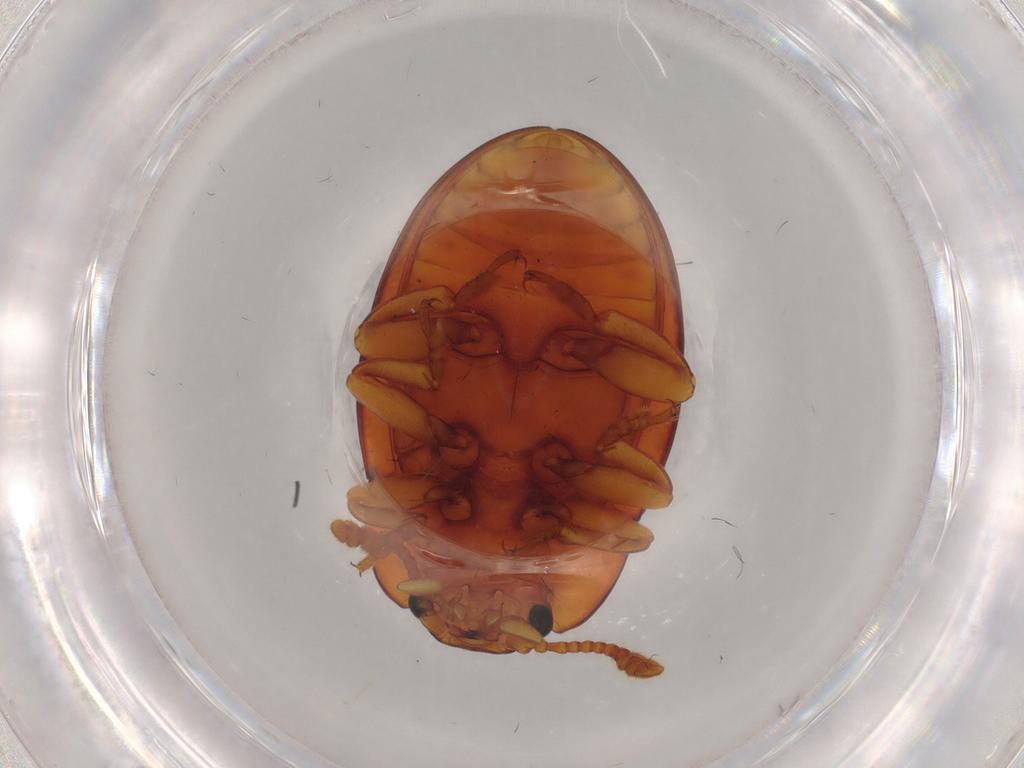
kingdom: Animalia
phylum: Arthropoda
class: Insecta
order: Coleoptera
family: Erotylidae
